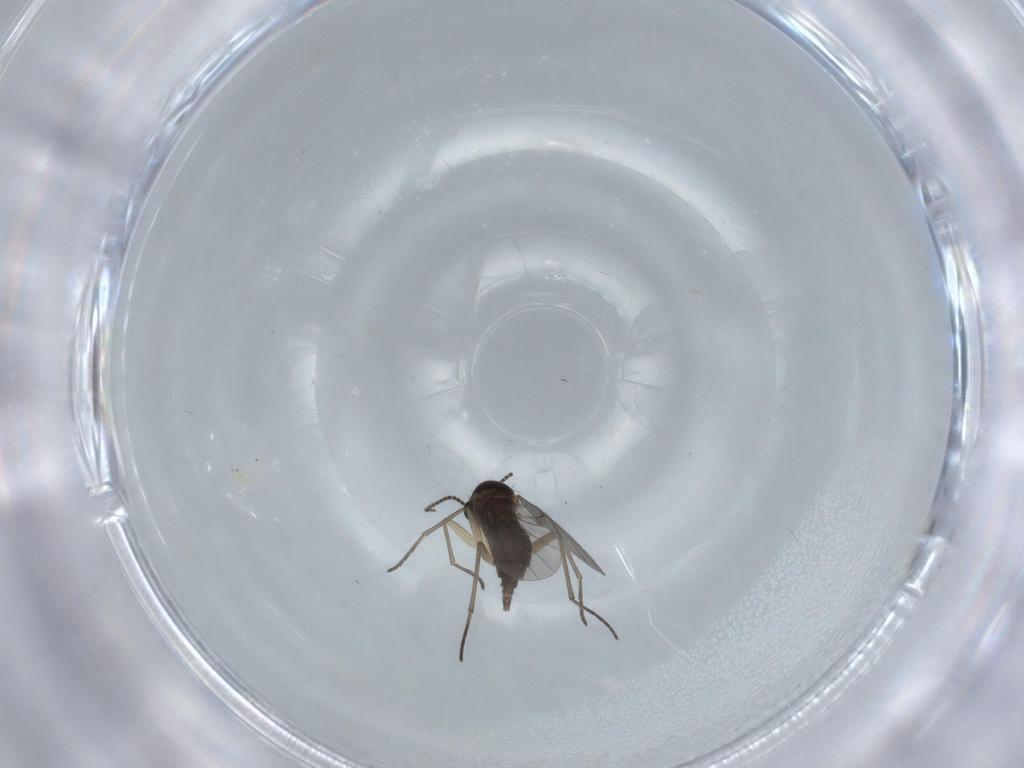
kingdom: Animalia
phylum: Arthropoda
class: Insecta
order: Diptera
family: Sciaridae
